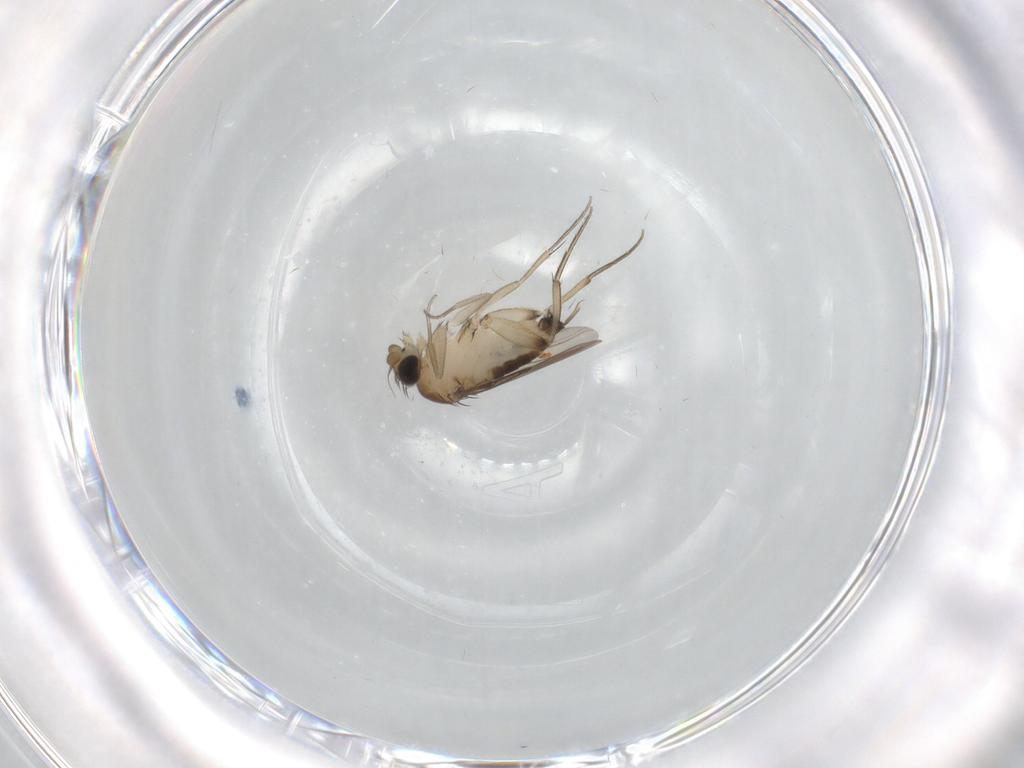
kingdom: Animalia
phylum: Arthropoda
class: Insecta
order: Diptera
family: Phoridae
